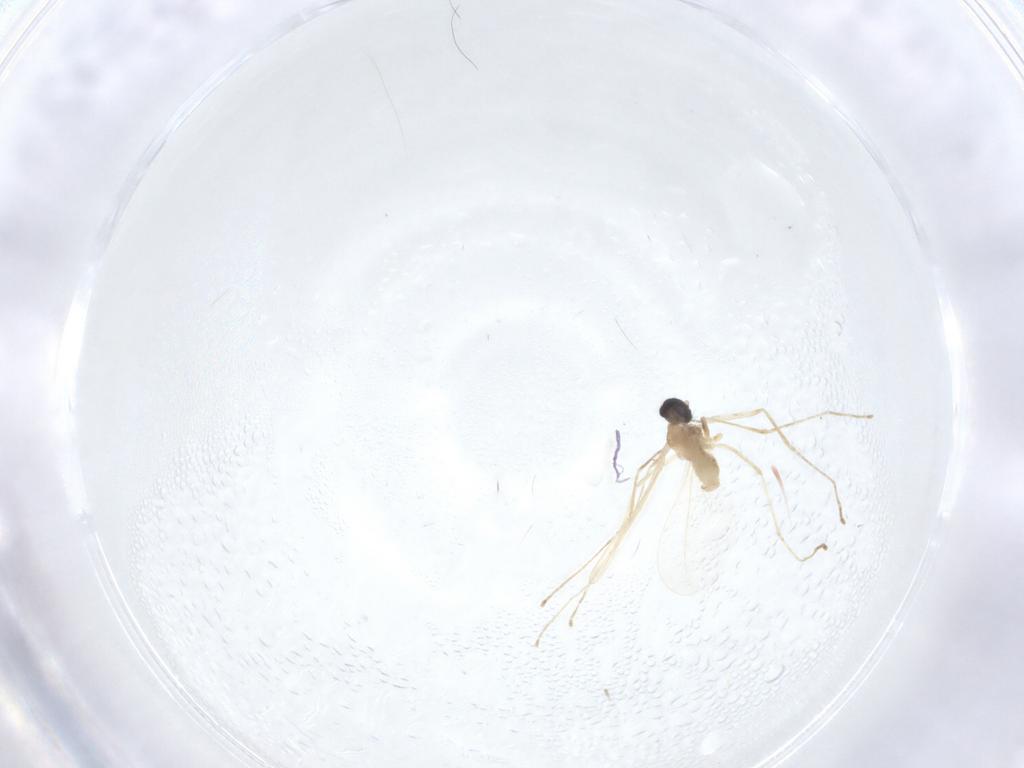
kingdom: Animalia
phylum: Arthropoda
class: Insecta
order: Diptera
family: Cecidomyiidae
